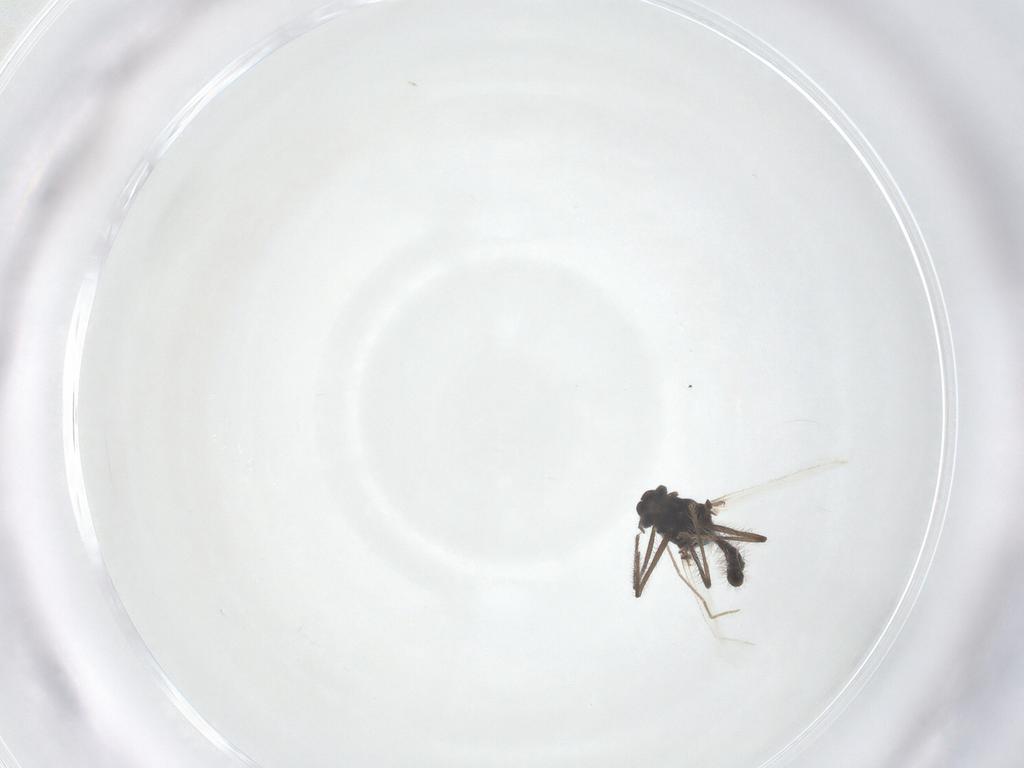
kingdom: Animalia
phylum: Arthropoda
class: Insecta
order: Diptera
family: Chironomidae
